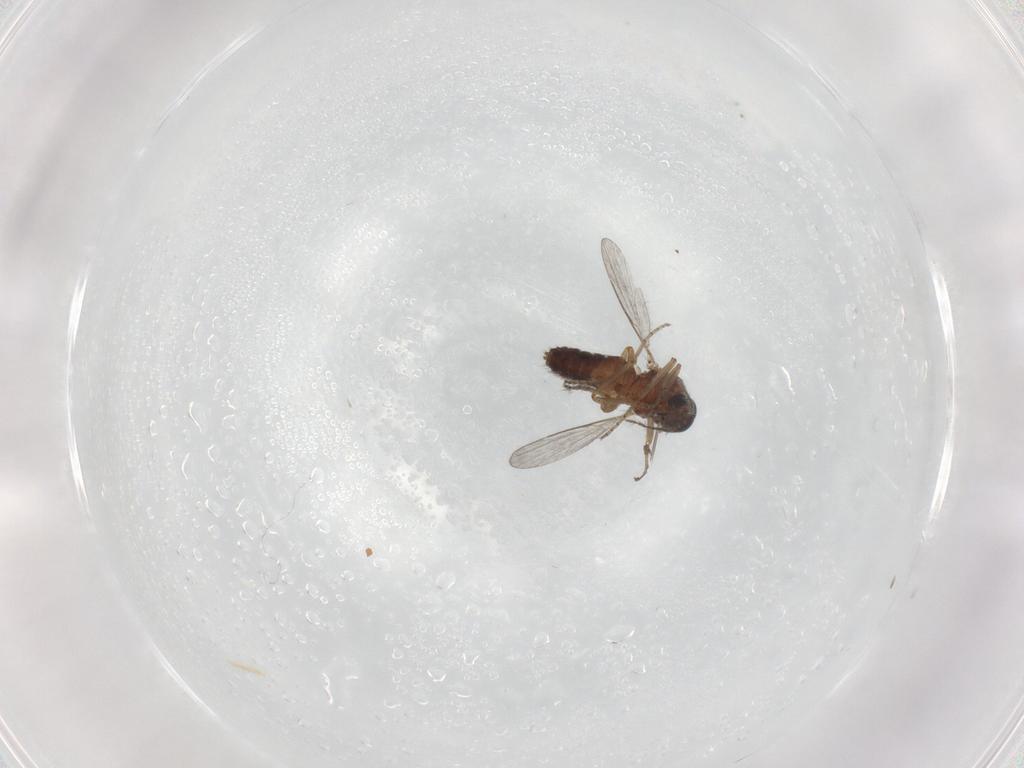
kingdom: Animalia
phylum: Arthropoda
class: Insecta
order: Diptera
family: Ceratopogonidae
